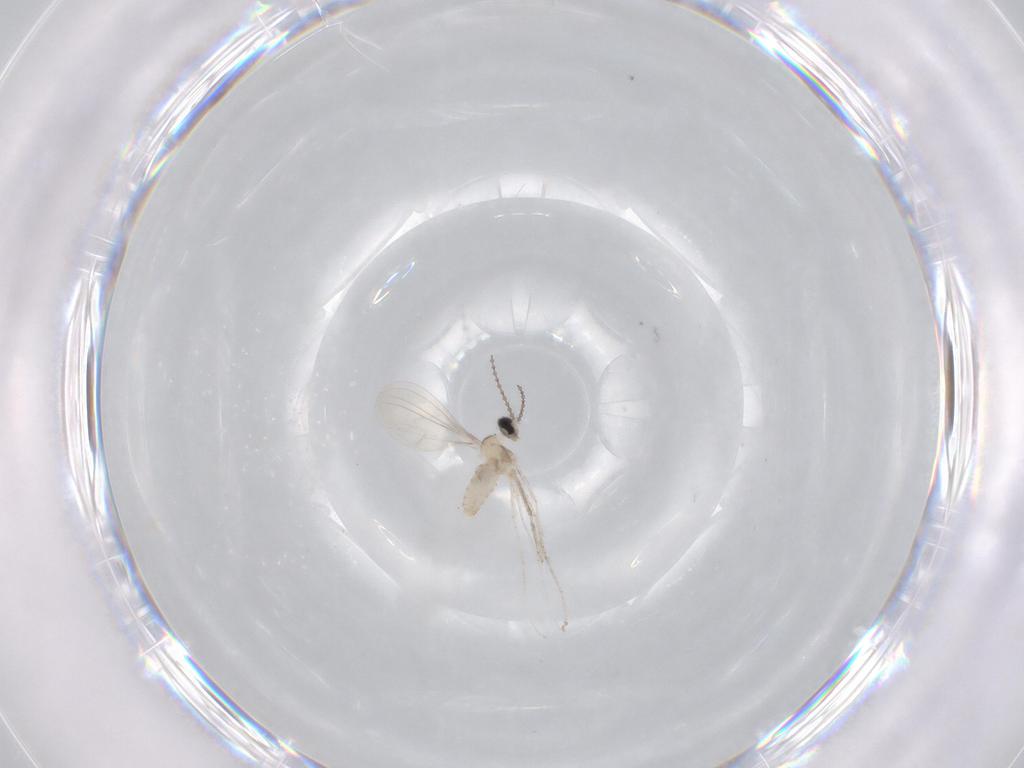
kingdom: Animalia
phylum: Arthropoda
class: Insecta
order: Diptera
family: Cecidomyiidae
